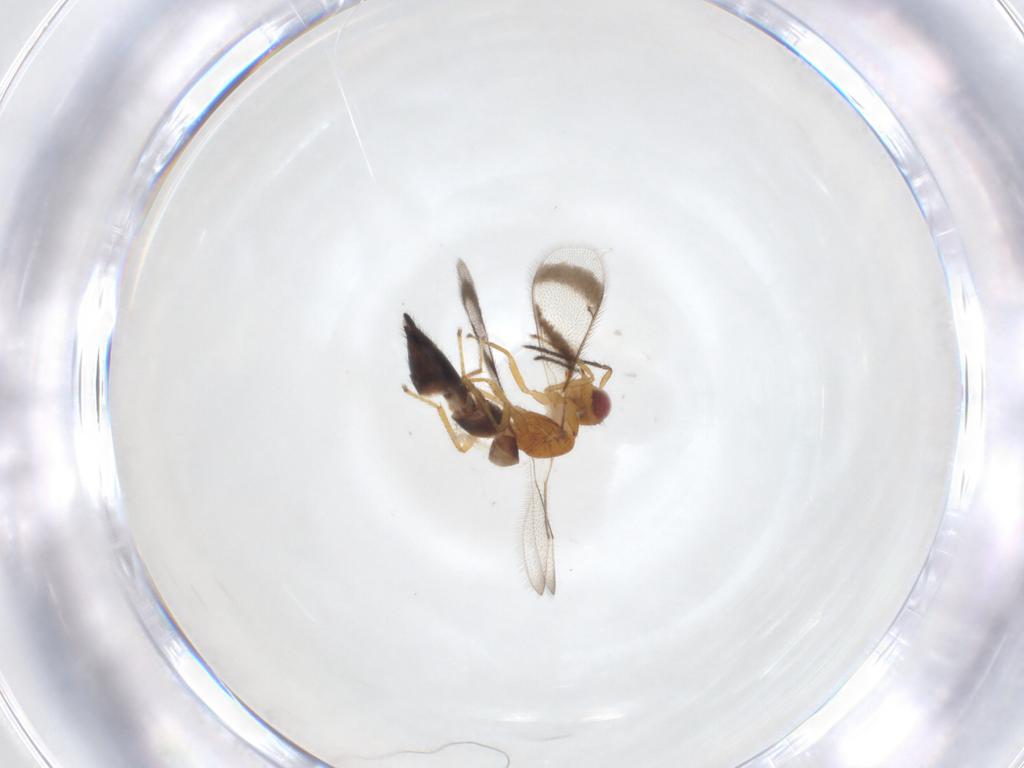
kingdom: Animalia
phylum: Arthropoda
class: Insecta
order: Hymenoptera
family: Eulophidae
